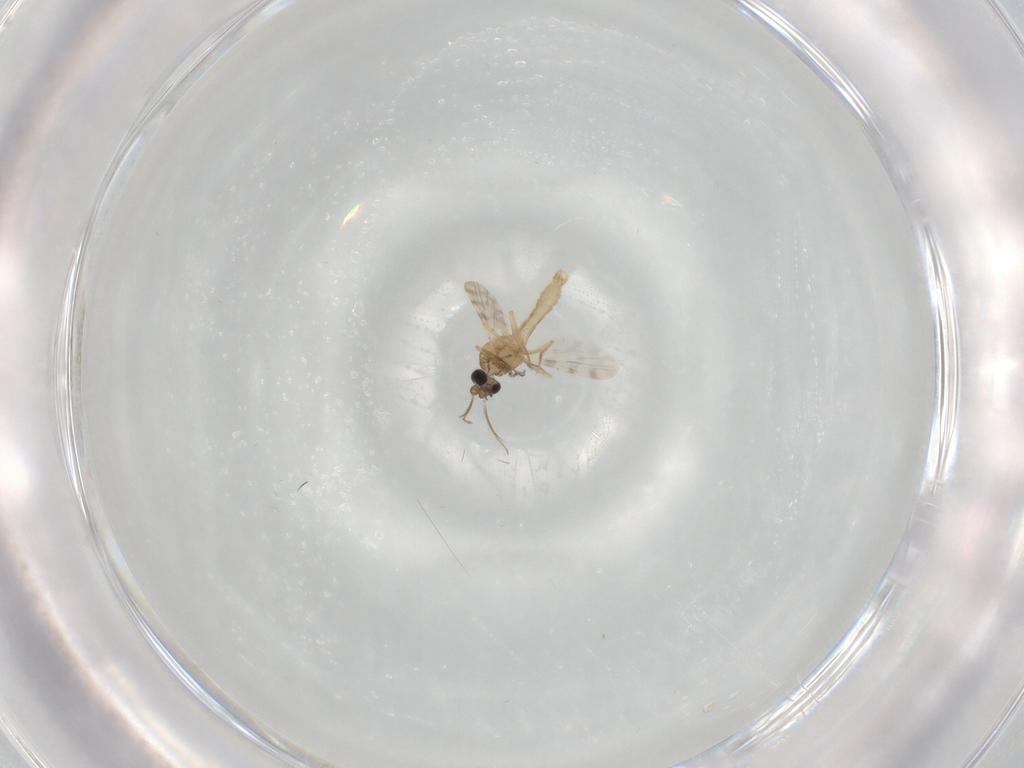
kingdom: Animalia
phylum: Arthropoda
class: Insecta
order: Diptera
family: Ceratopogonidae
